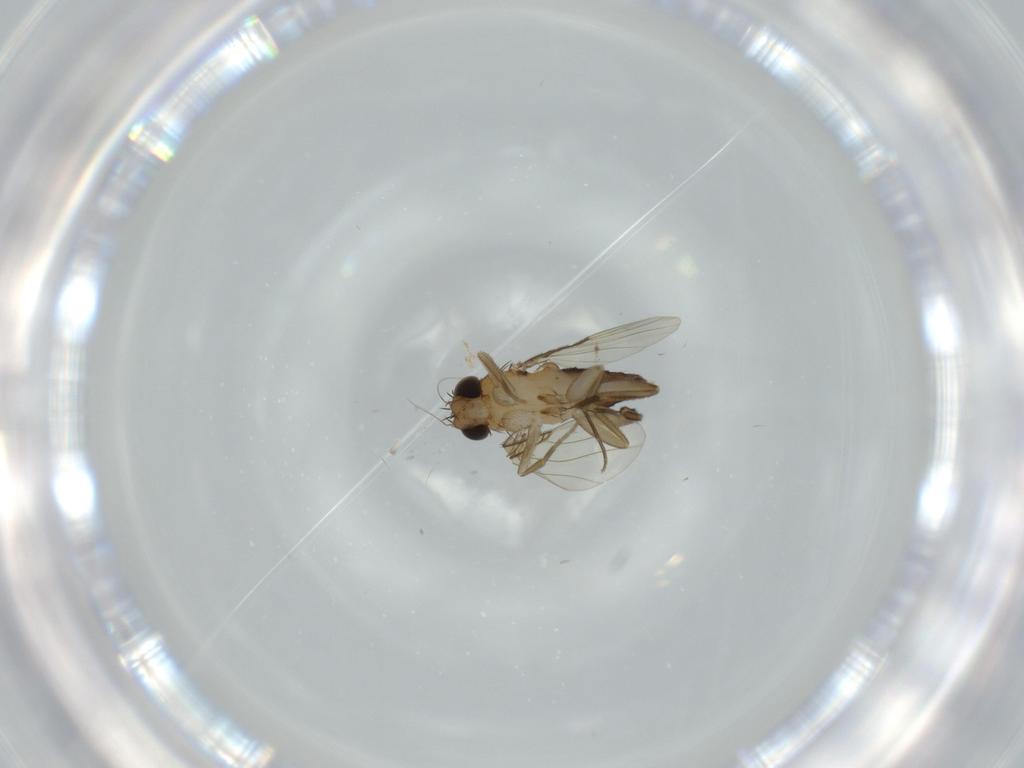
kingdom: Animalia
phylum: Arthropoda
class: Insecta
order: Diptera
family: Phoridae
